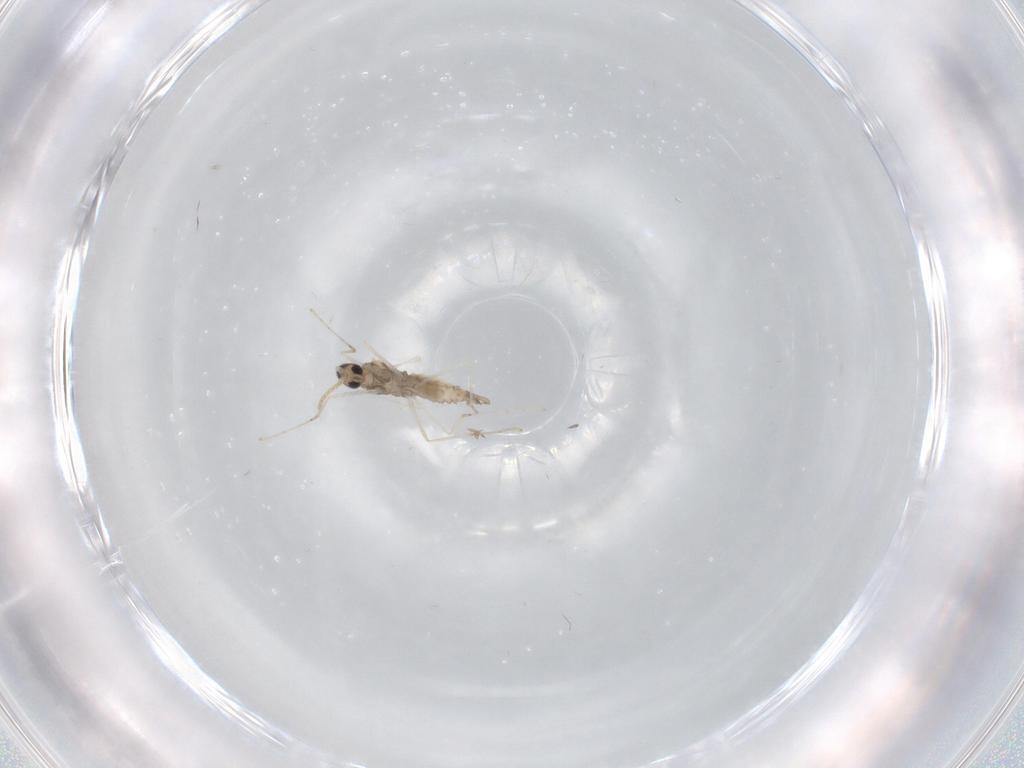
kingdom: Animalia
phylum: Arthropoda
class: Insecta
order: Diptera
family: Cecidomyiidae
